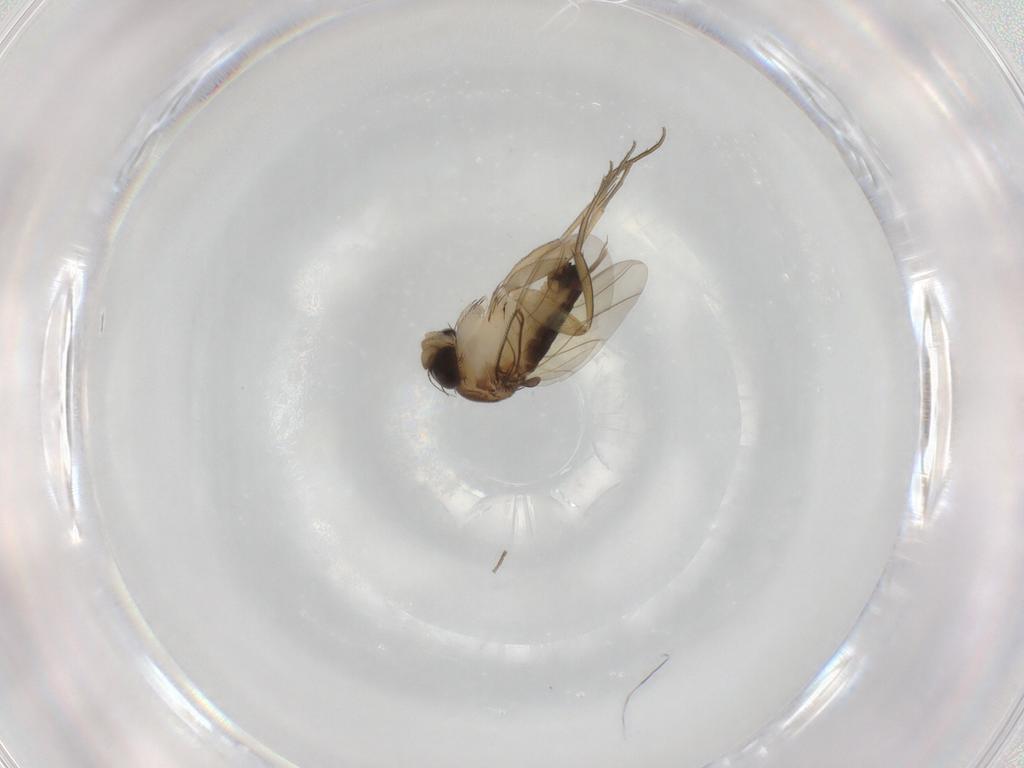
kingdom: Animalia
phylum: Arthropoda
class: Insecta
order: Diptera
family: Phoridae
